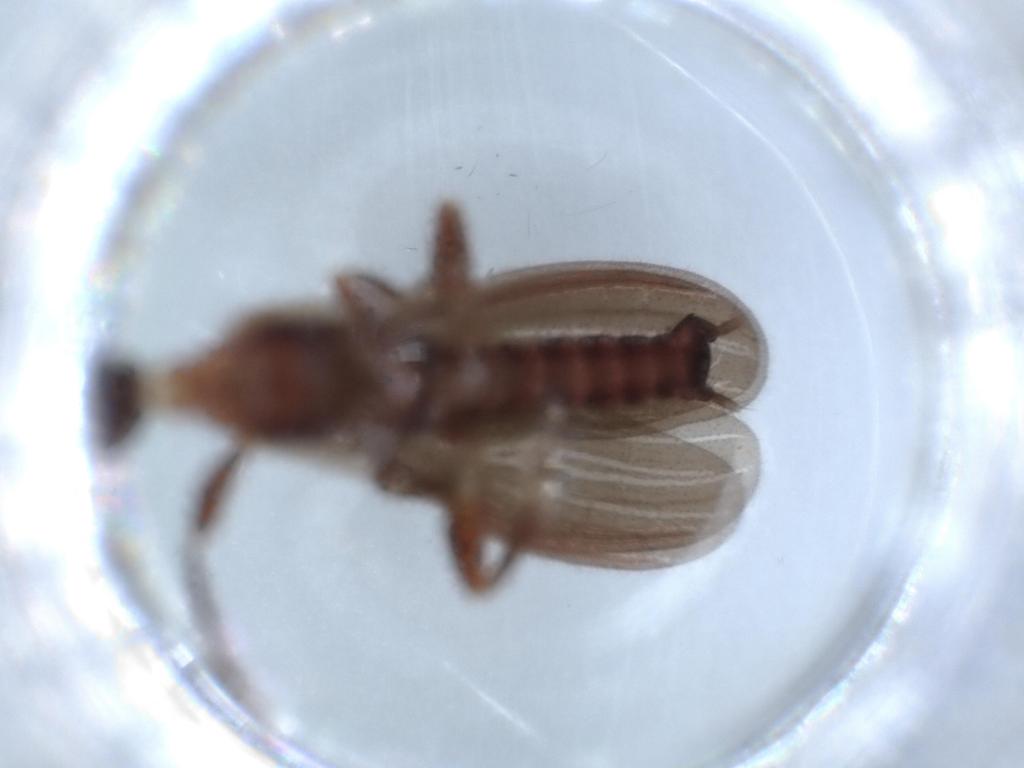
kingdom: Animalia
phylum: Arthropoda
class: Insecta
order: Embioptera
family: Anisembiidae
